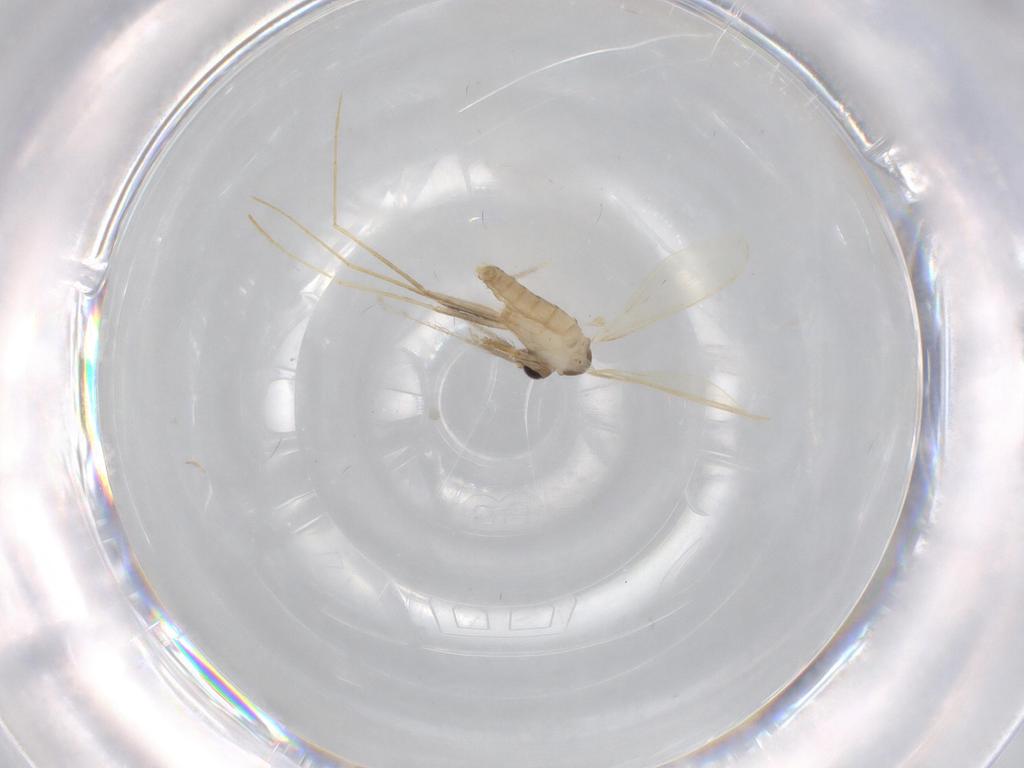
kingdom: Animalia
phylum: Arthropoda
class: Insecta
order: Diptera
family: Psychodidae
